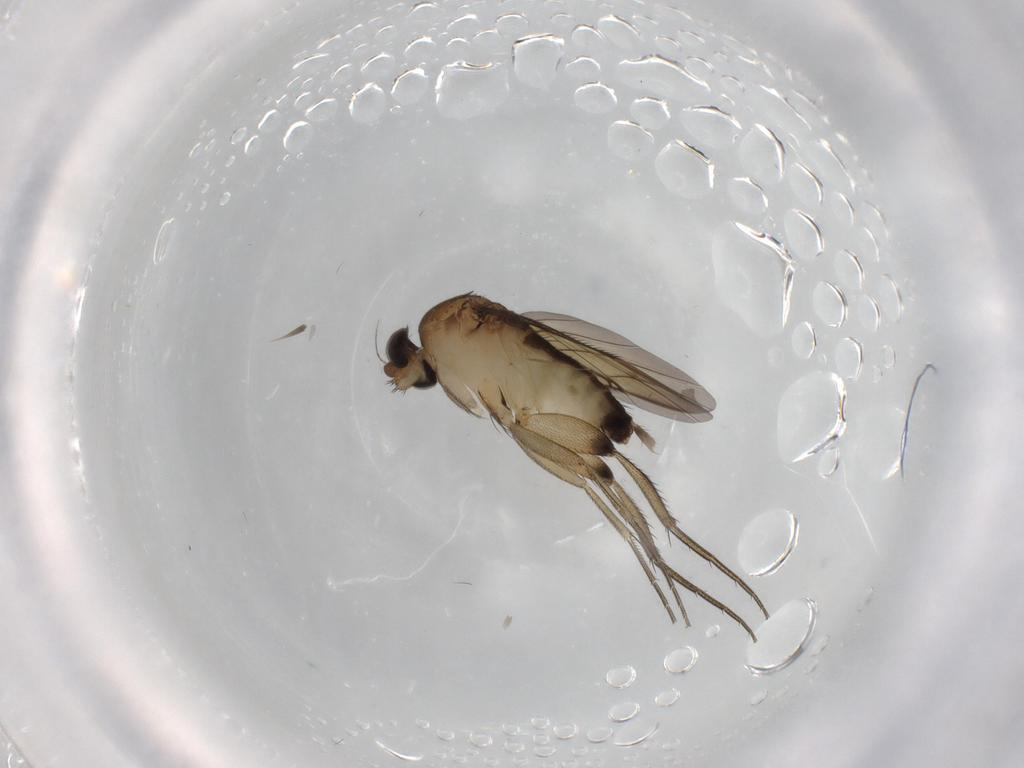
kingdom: Animalia
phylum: Arthropoda
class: Insecta
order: Diptera
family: Phoridae
